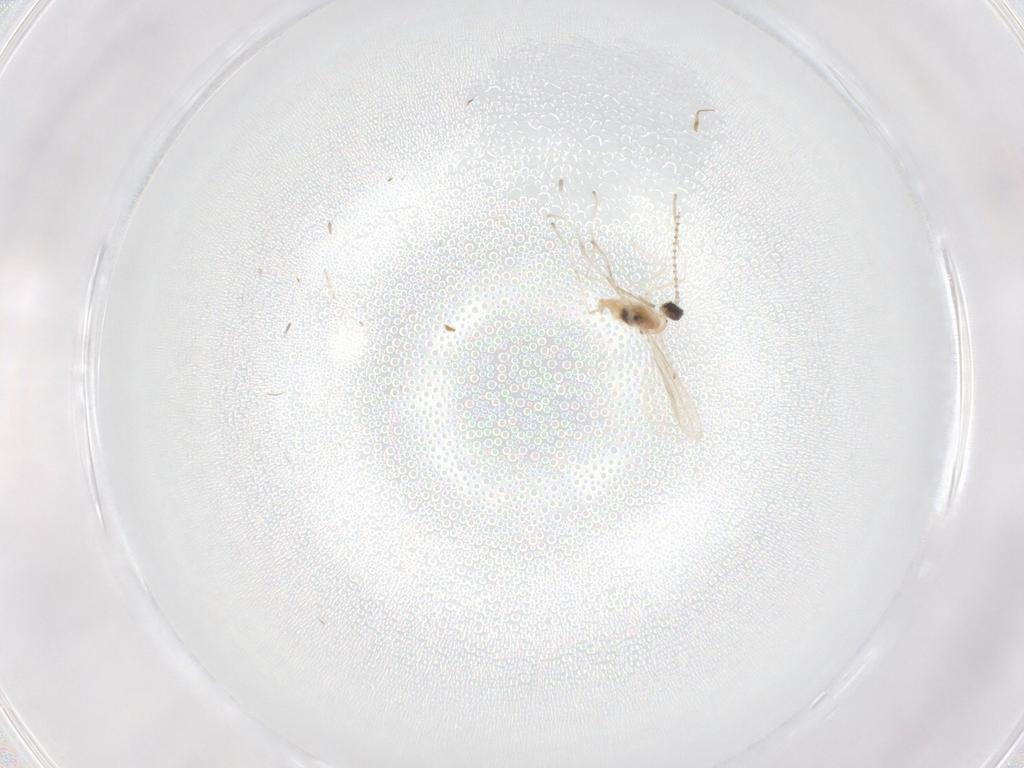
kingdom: Animalia
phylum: Arthropoda
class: Insecta
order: Diptera
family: Cecidomyiidae
